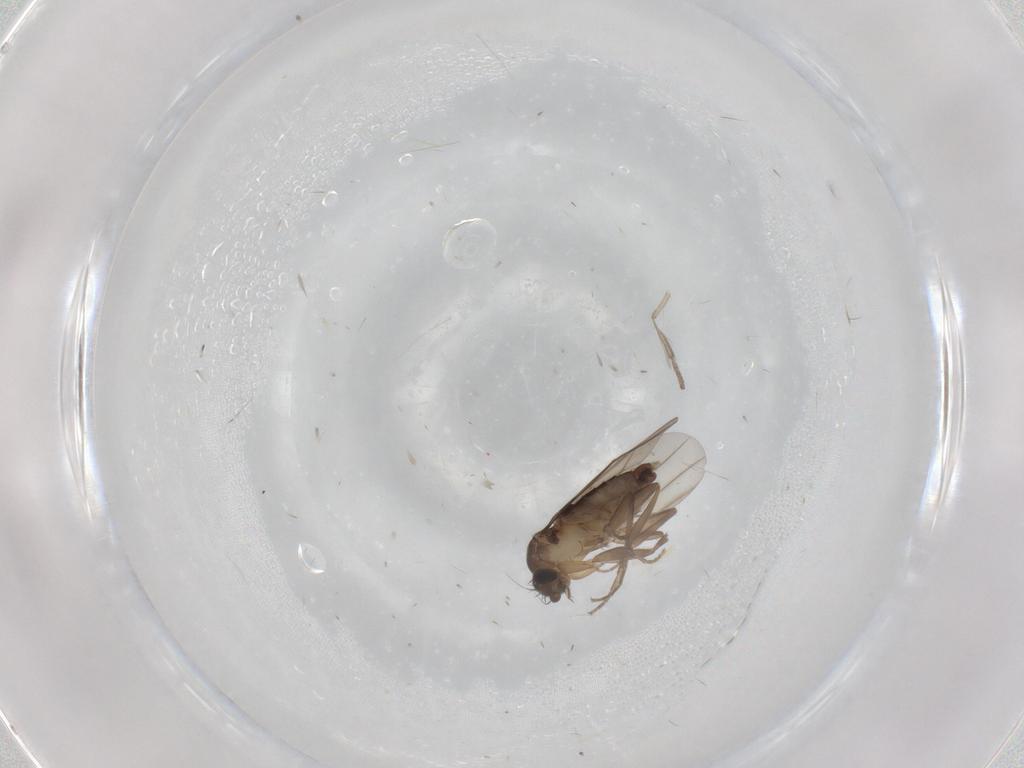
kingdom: Animalia
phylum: Arthropoda
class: Insecta
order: Diptera
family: Phoridae
